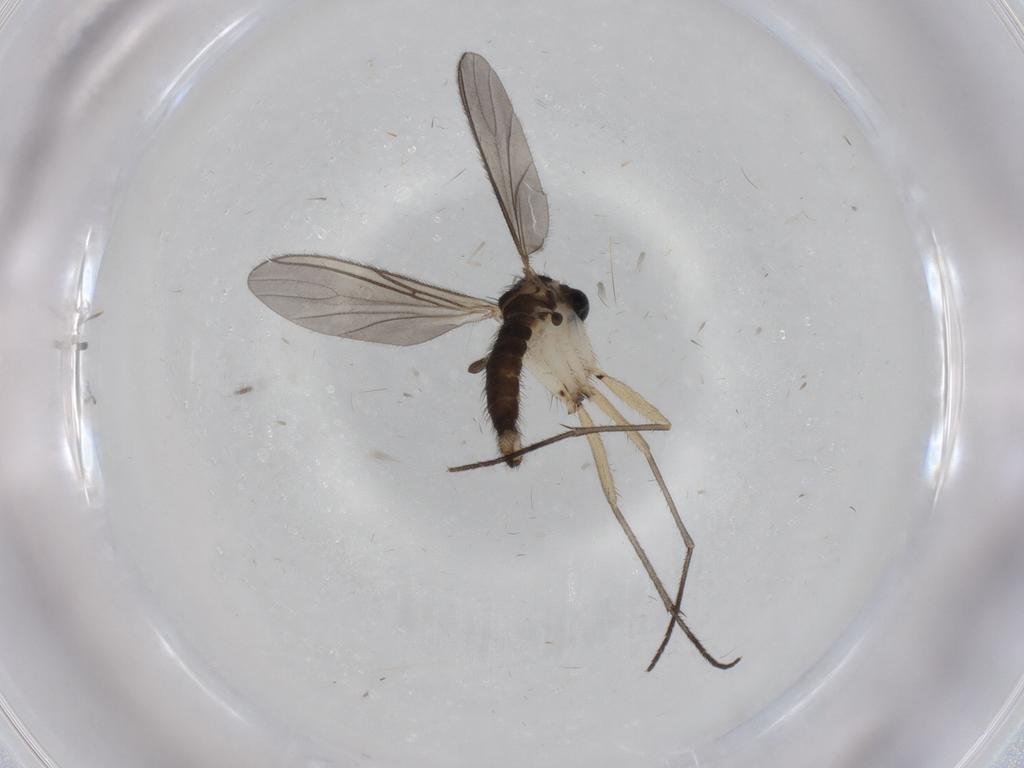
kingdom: Animalia
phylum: Arthropoda
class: Insecta
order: Diptera
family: Sciaridae
